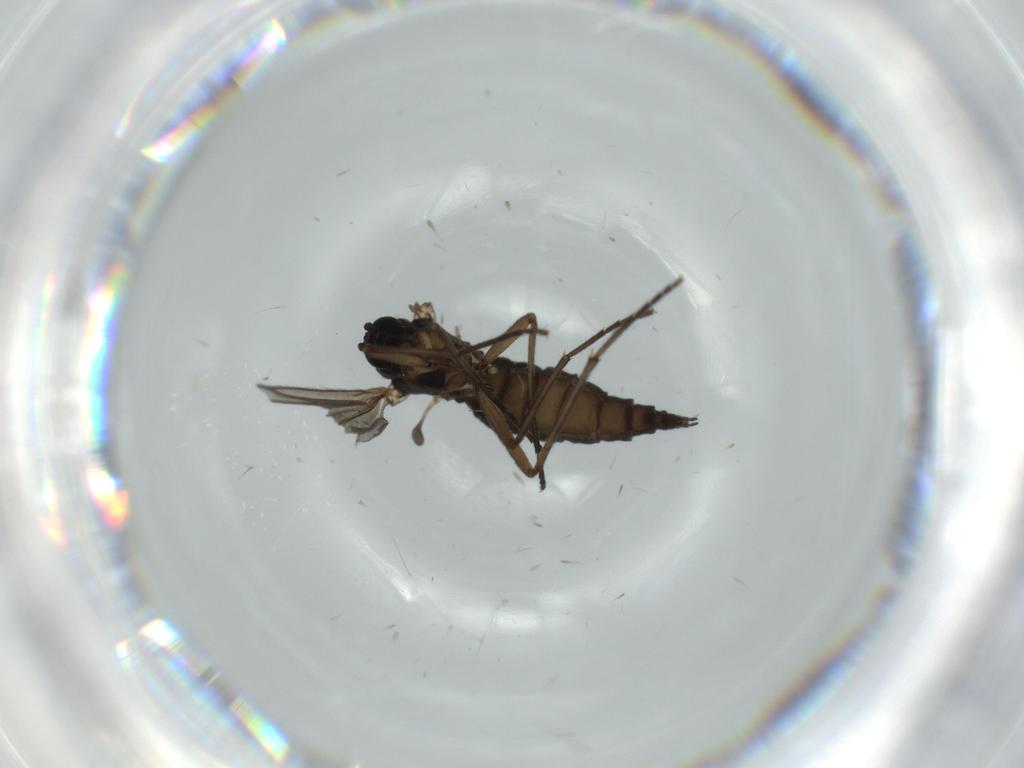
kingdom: Animalia
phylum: Arthropoda
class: Insecta
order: Diptera
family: Sciaridae
